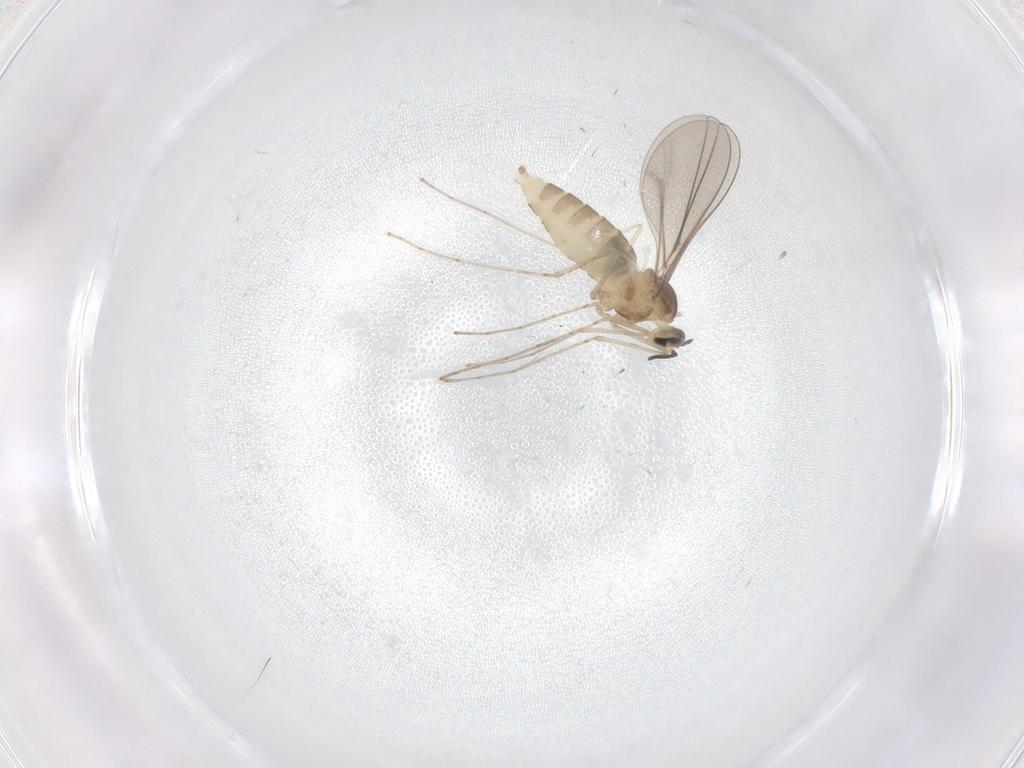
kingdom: Animalia
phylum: Arthropoda
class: Insecta
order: Diptera
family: Cecidomyiidae
